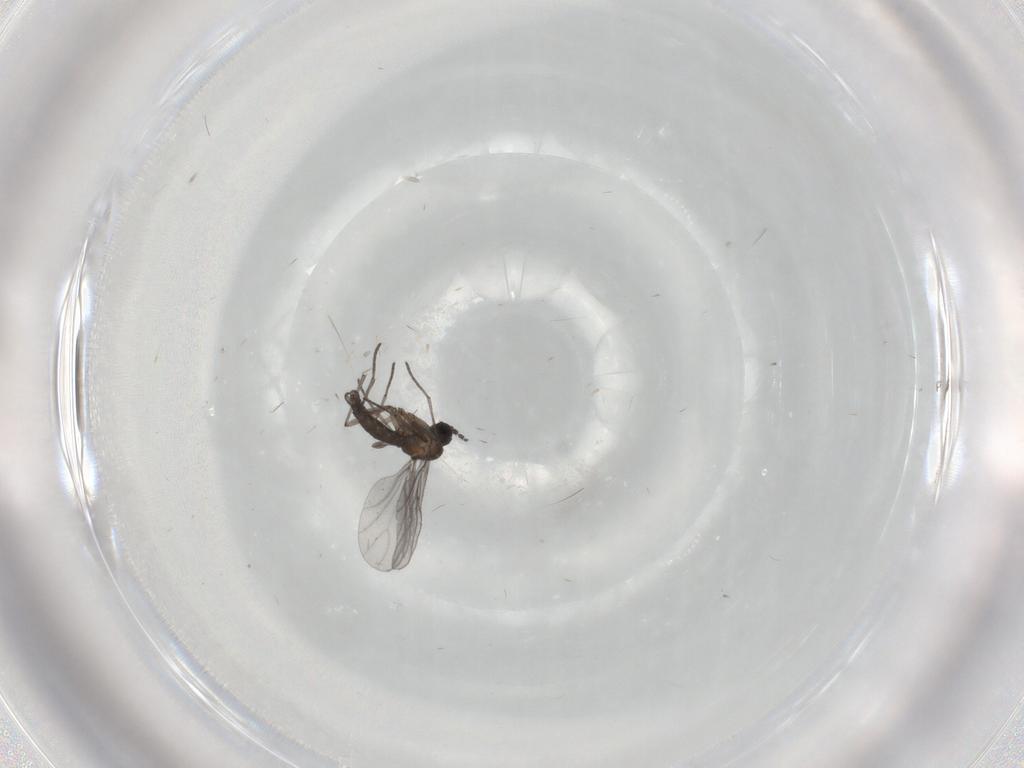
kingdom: Animalia
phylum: Arthropoda
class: Insecta
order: Diptera
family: Sciaridae
